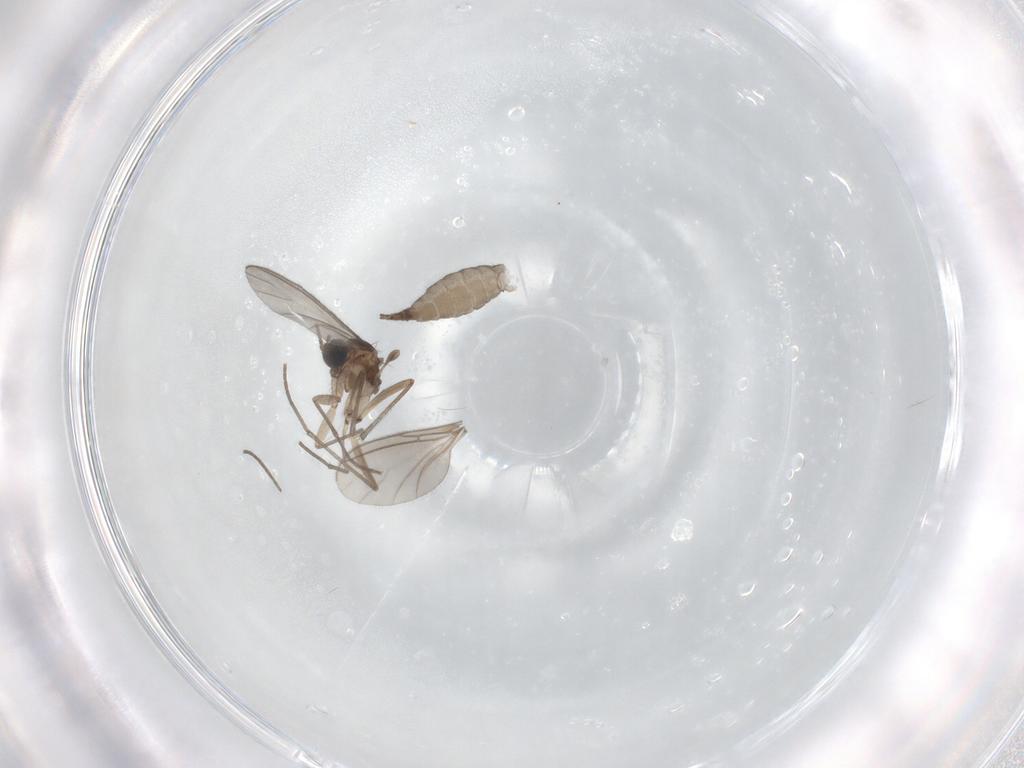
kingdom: Animalia
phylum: Arthropoda
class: Insecta
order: Diptera
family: Sciaridae
